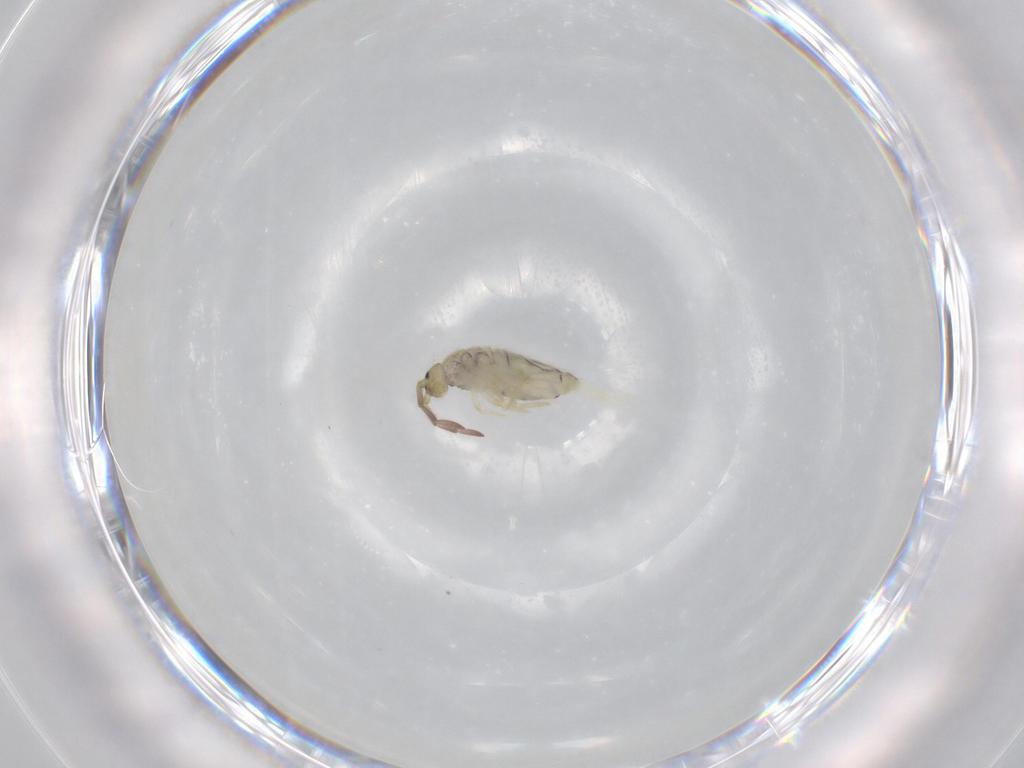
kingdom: Animalia
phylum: Arthropoda
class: Collembola
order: Entomobryomorpha
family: Entomobryidae
